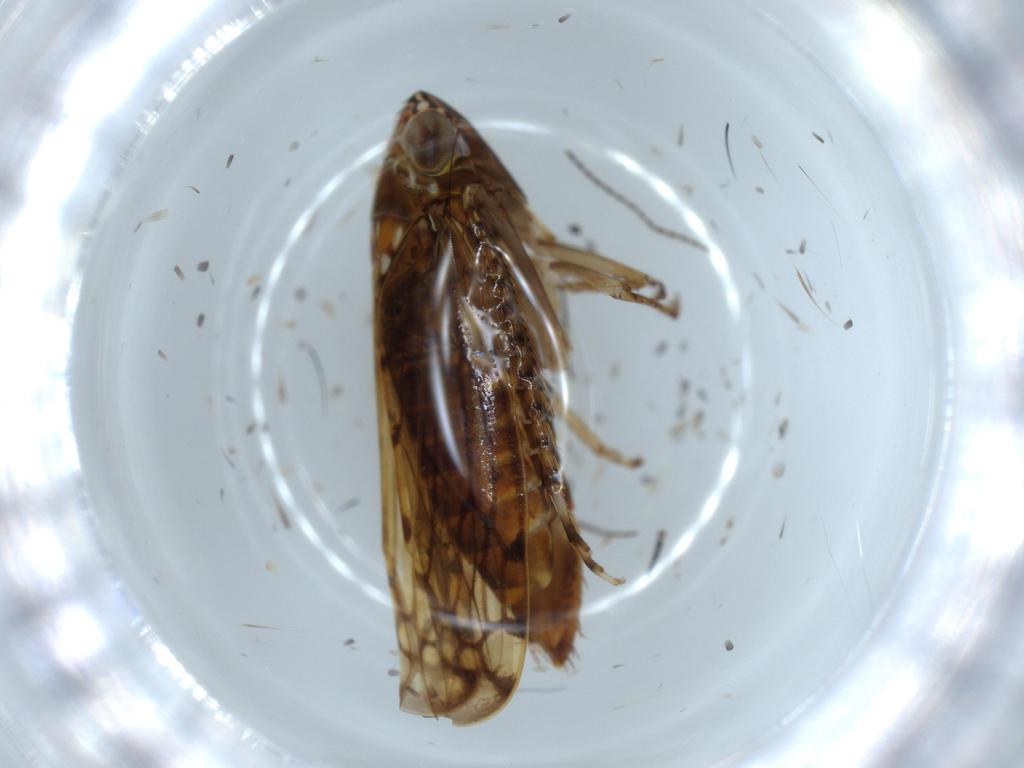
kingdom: Animalia
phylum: Arthropoda
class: Insecta
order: Hemiptera
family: Cicadellidae
